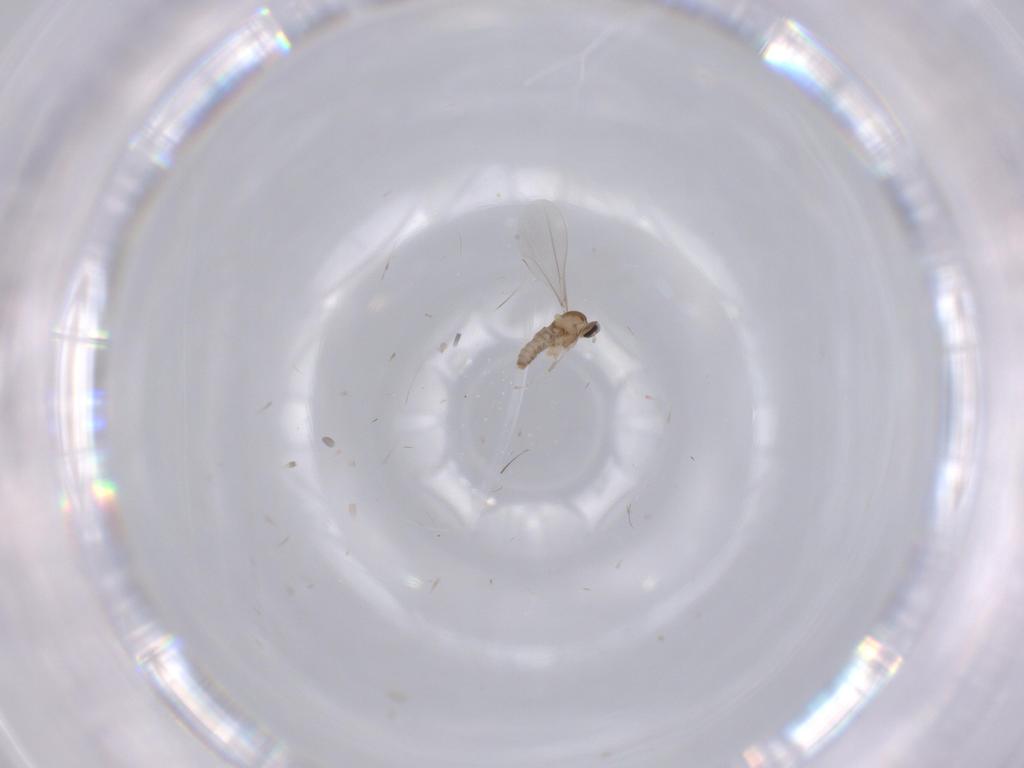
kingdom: Animalia
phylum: Arthropoda
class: Insecta
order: Diptera
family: Cecidomyiidae
